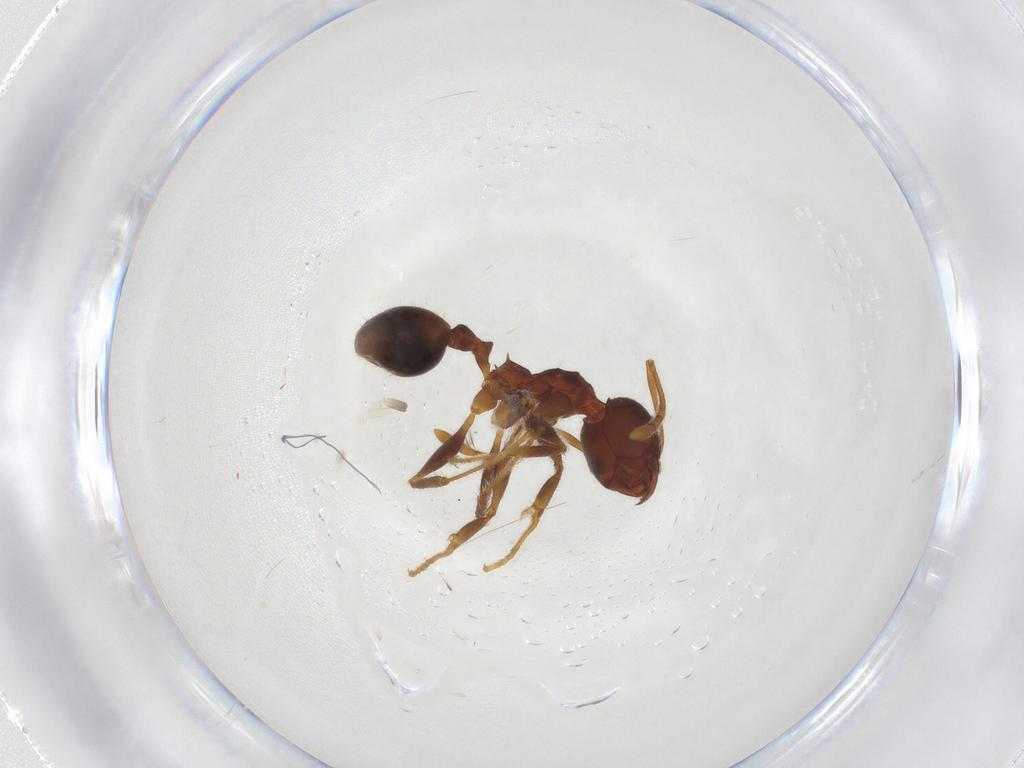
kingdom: Animalia
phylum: Arthropoda
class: Insecta
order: Hymenoptera
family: Formicidae
